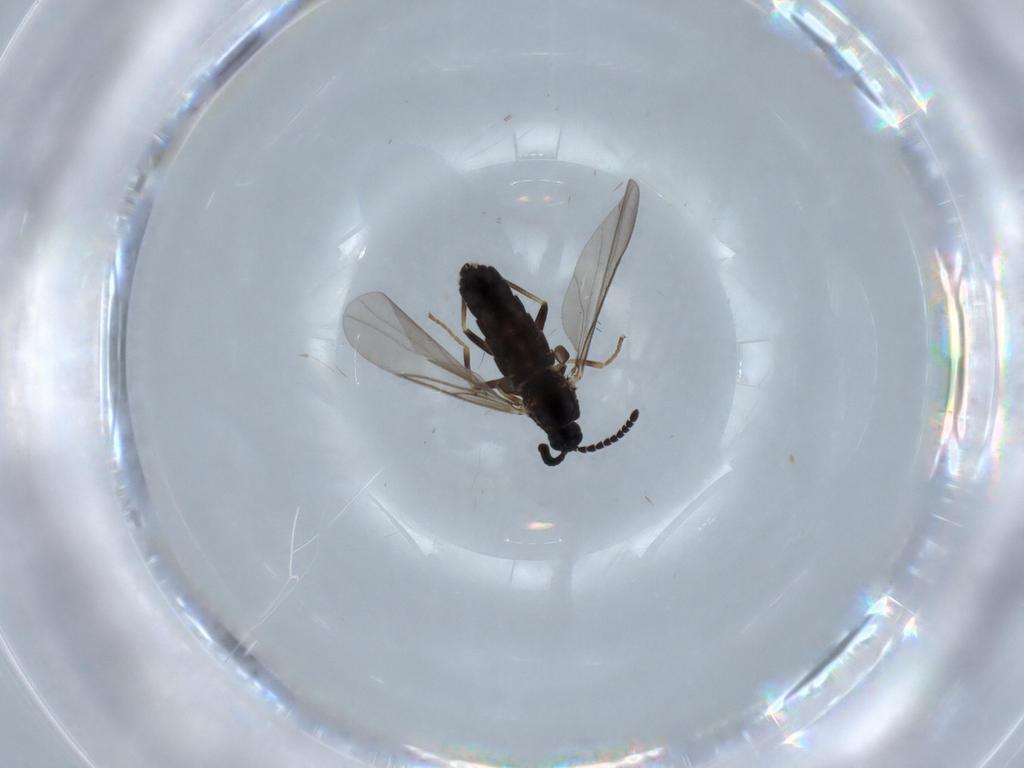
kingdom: Animalia
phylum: Arthropoda
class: Insecta
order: Diptera
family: Scatopsidae
